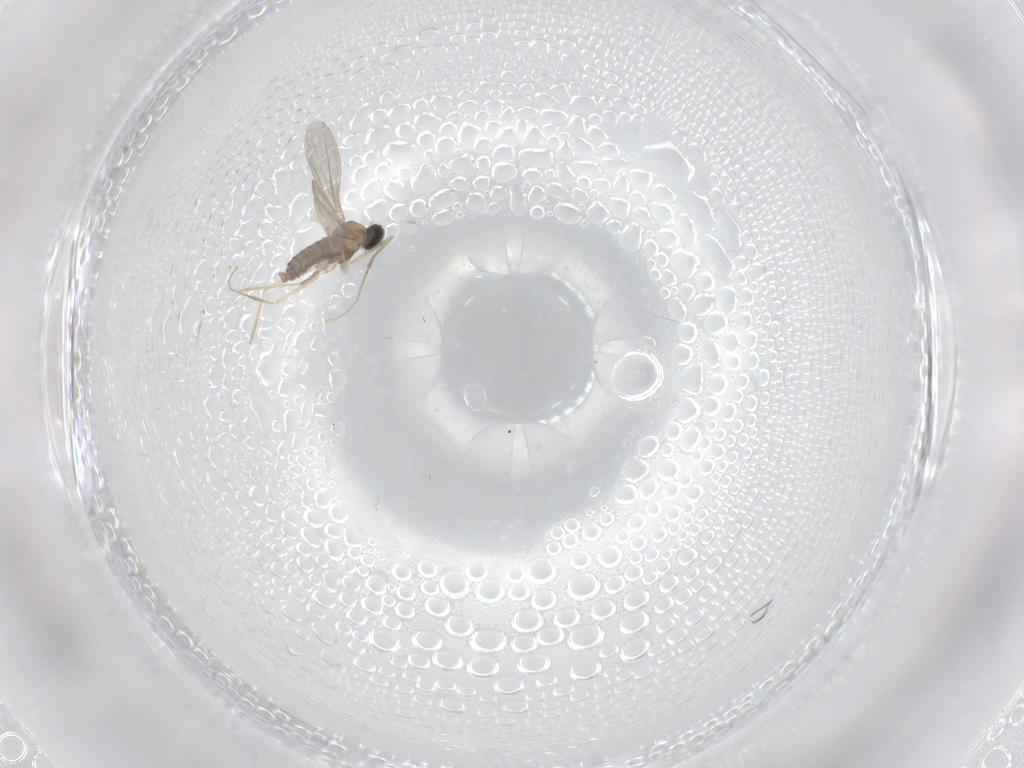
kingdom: Animalia
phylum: Arthropoda
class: Insecta
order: Diptera
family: Cecidomyiidae
